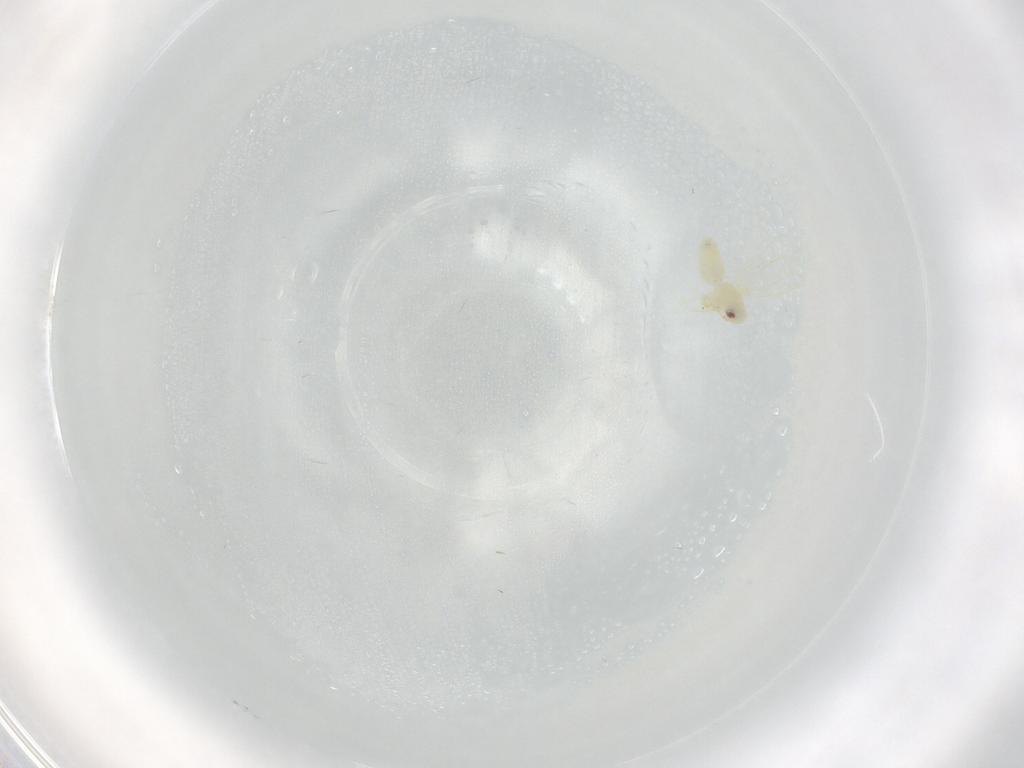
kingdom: Animalia
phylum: Arthropoda
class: Insecta
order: Hemiptera
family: Aleyrodidae
